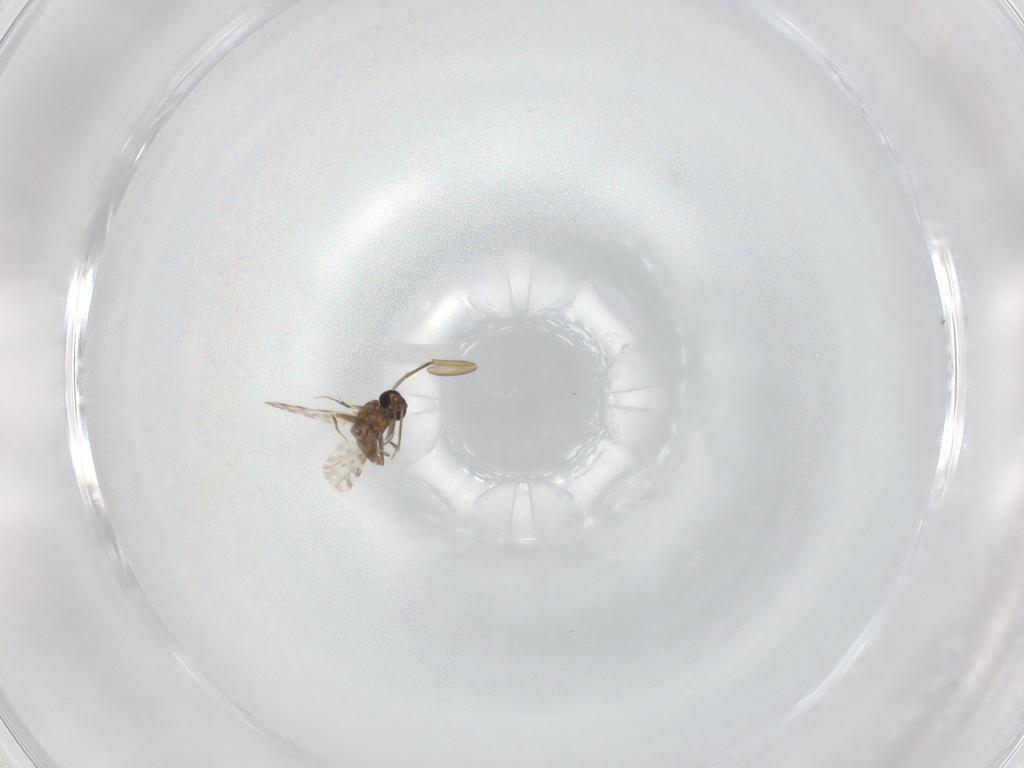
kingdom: Animalia
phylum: Arthropoda
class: Insecta
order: Diptera
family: Ceratopogonidae
